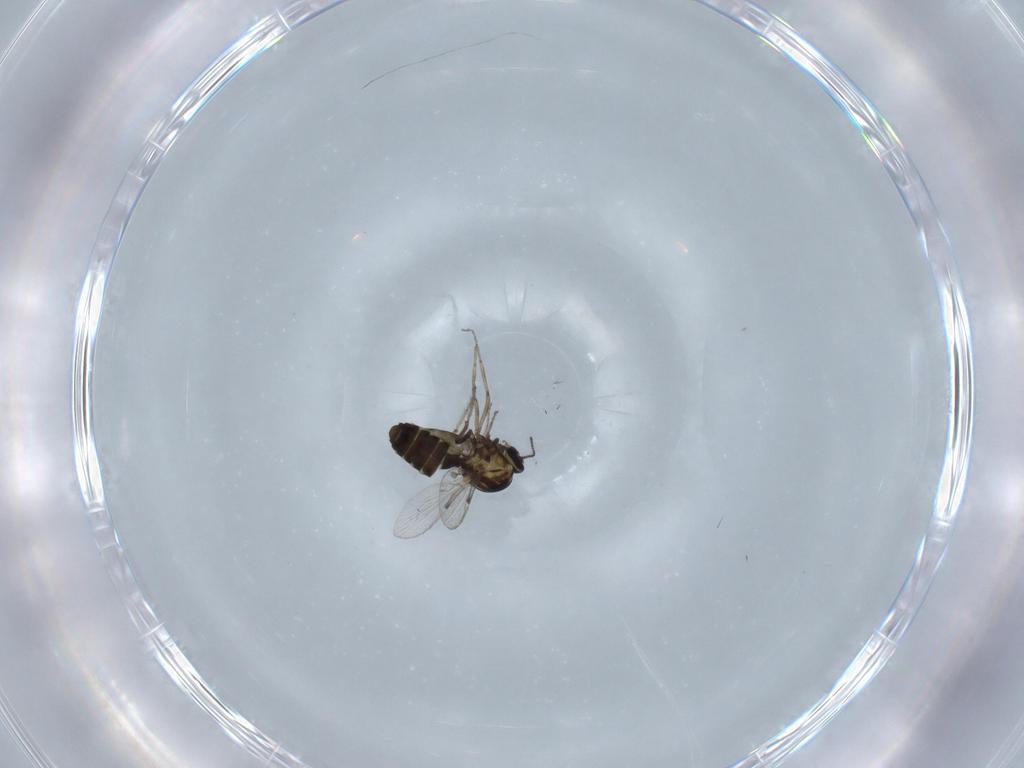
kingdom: Animalia
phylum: Arthropoda
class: Insecta
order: Diptera
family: Ceratopogonidae
